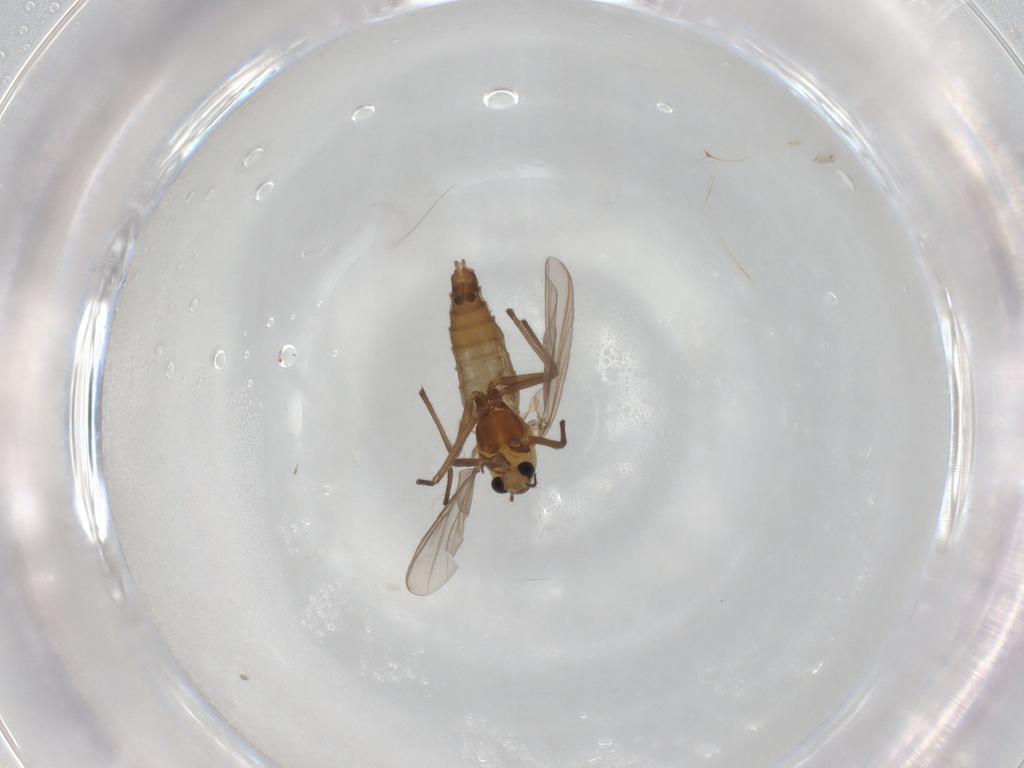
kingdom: Animalia
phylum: Arthropoda
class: Insecta
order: Diptera
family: Chironomidae
